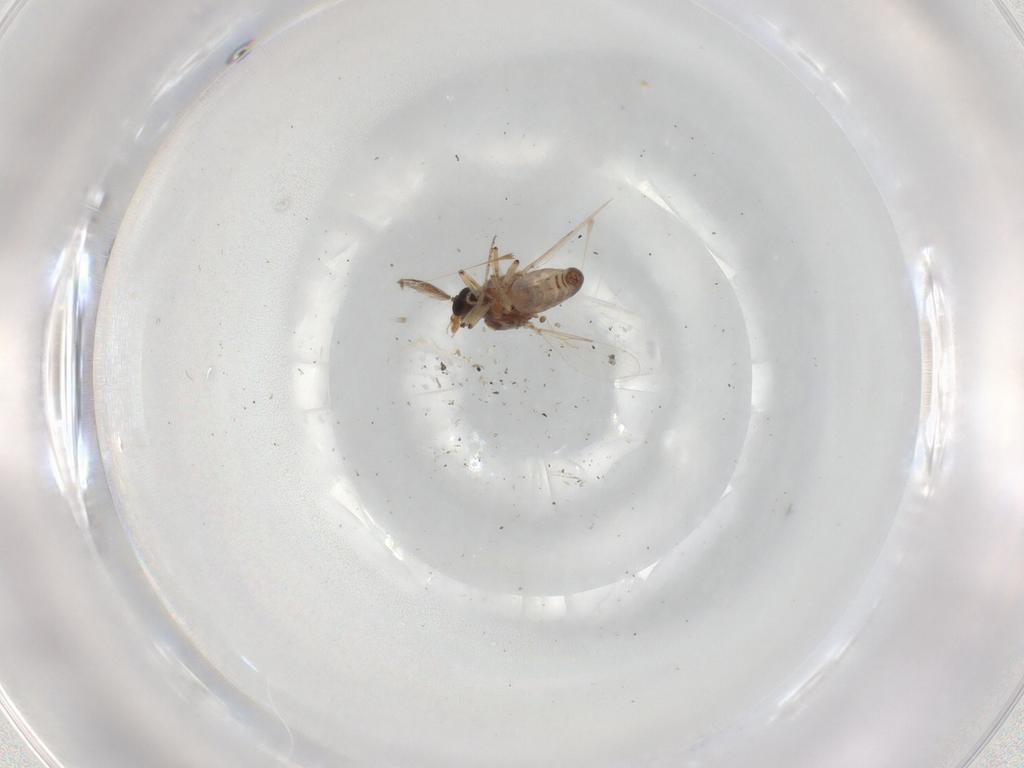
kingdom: Animalia
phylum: Arthropoda
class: Insecta
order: Diptera
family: Ceratopogonidae
